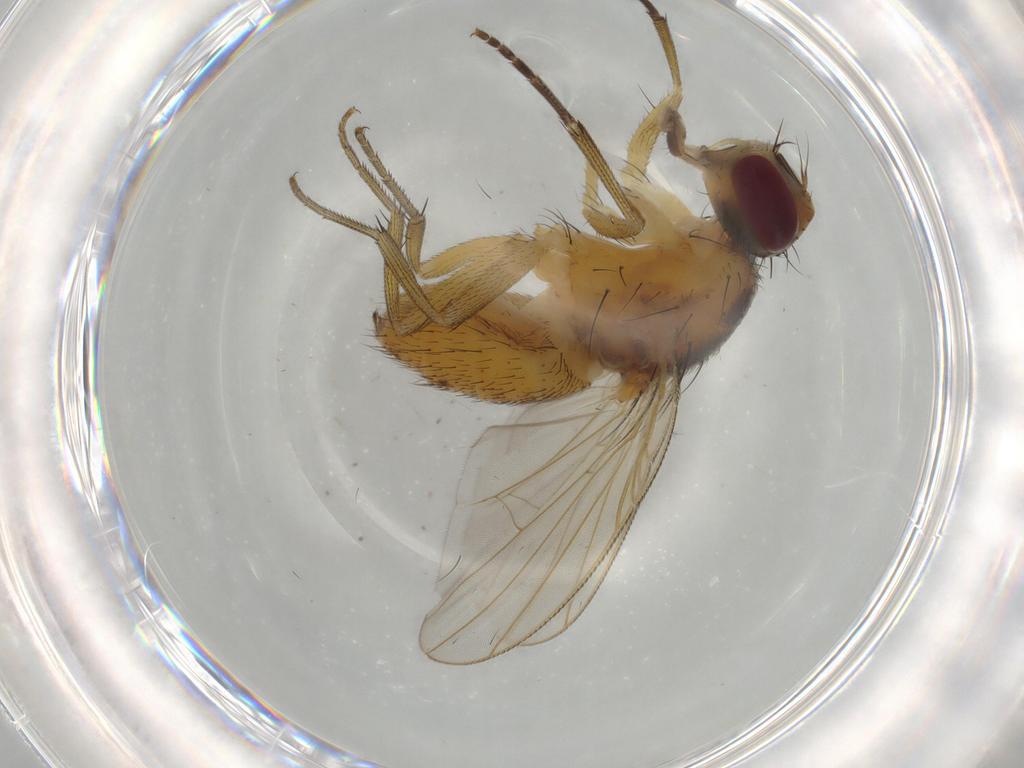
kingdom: Animalia
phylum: Arthropoda
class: Insecta
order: Diptera
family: Muscidae
